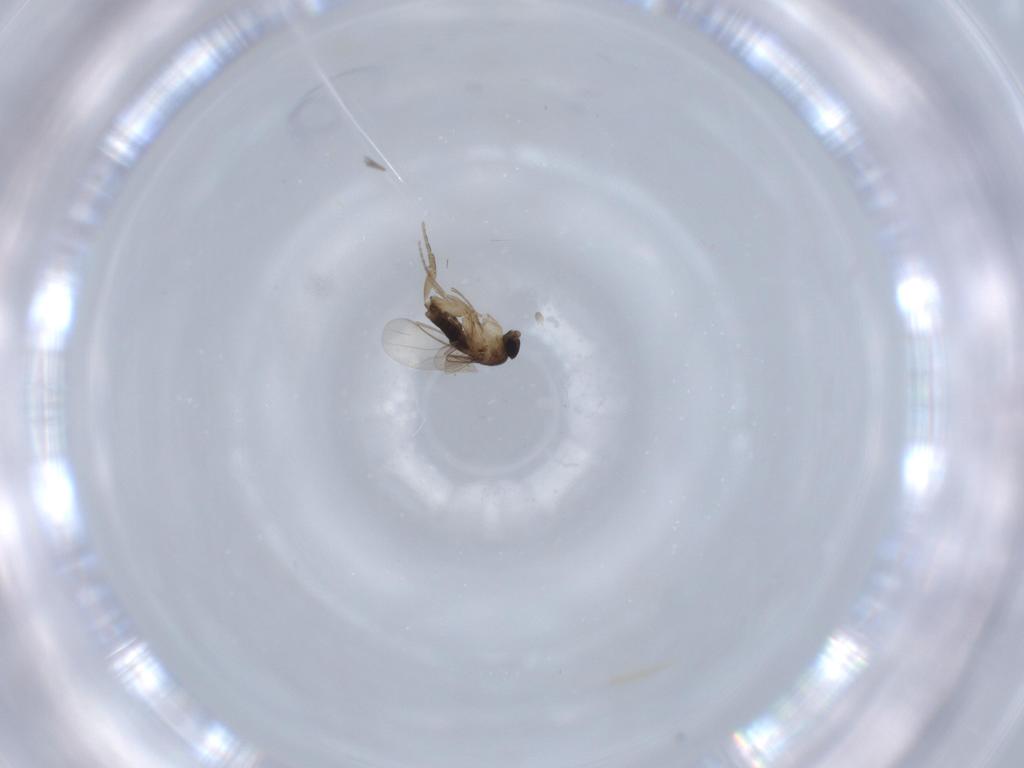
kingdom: Animalia
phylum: Arthropoda
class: Insecta
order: Diptera
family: Phoridae
